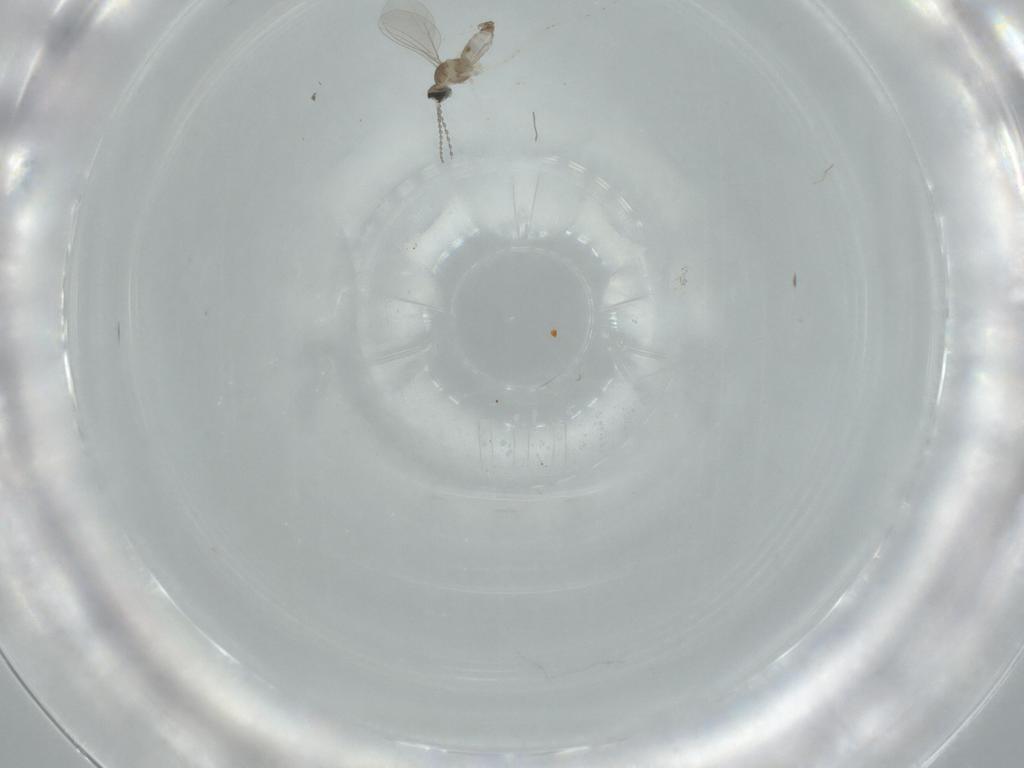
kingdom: Animalia
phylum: Arthropoda
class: Insecta
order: Diptera
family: Cecidomyiidae
